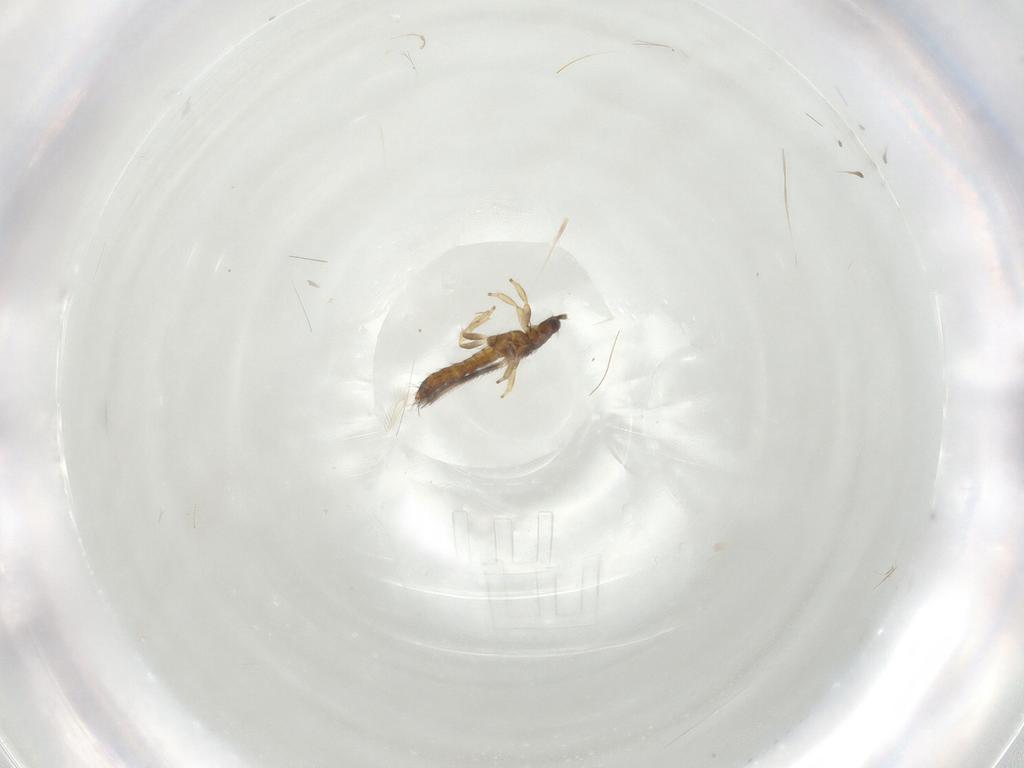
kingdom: Animalia
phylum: Arthropoda
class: Insecta
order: Thysanoptera
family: Thripidae
